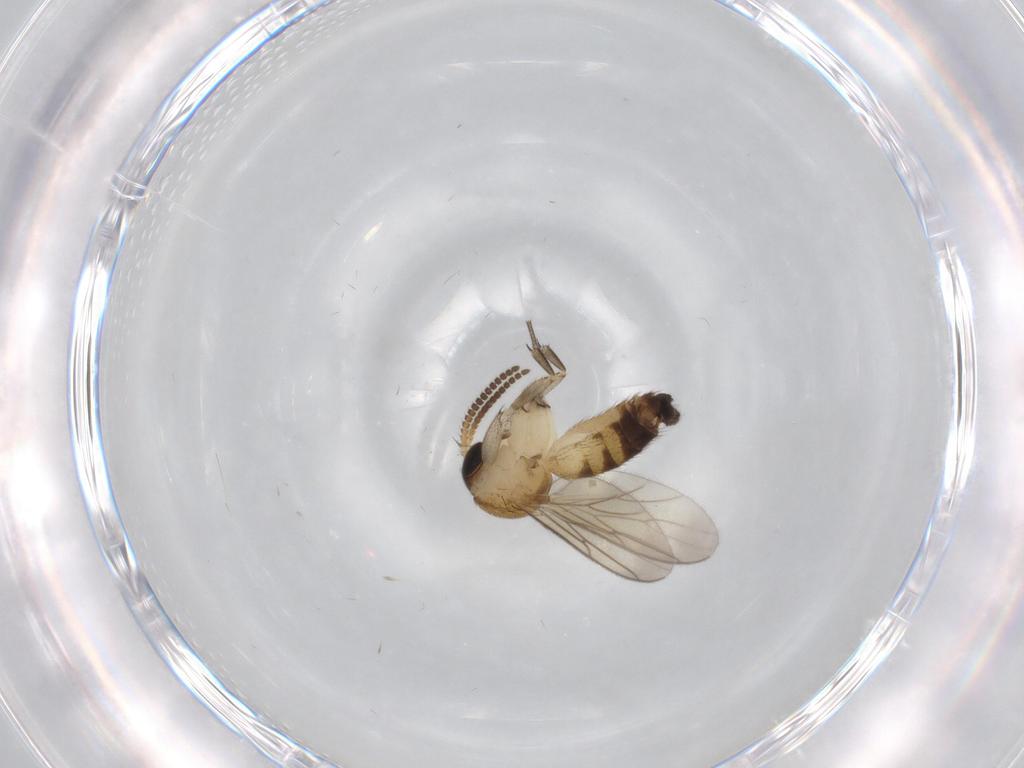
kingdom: Animalia
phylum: Arthropoda
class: Insecta
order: Diptera
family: Mycetophilidae
